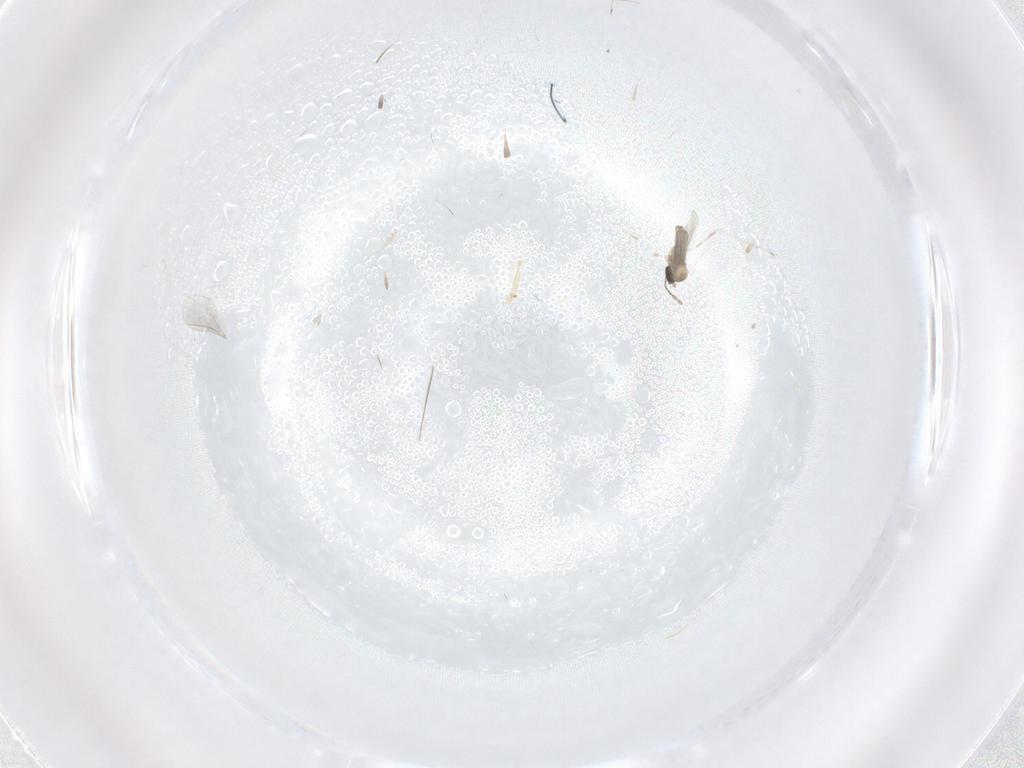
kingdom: Animalia
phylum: Arthropoda
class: Insecta
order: Diptera
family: Cecidomyiidae
